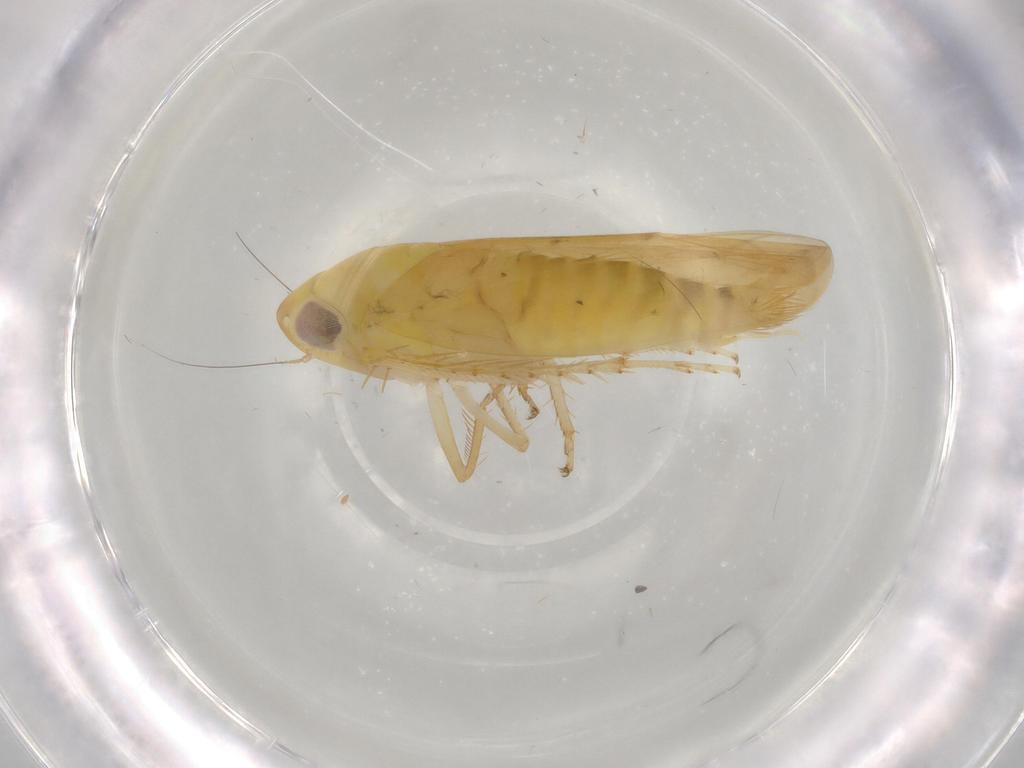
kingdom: Animalia
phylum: Arthropoda
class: Insecta
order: Hemiptera
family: Cicadellidae
